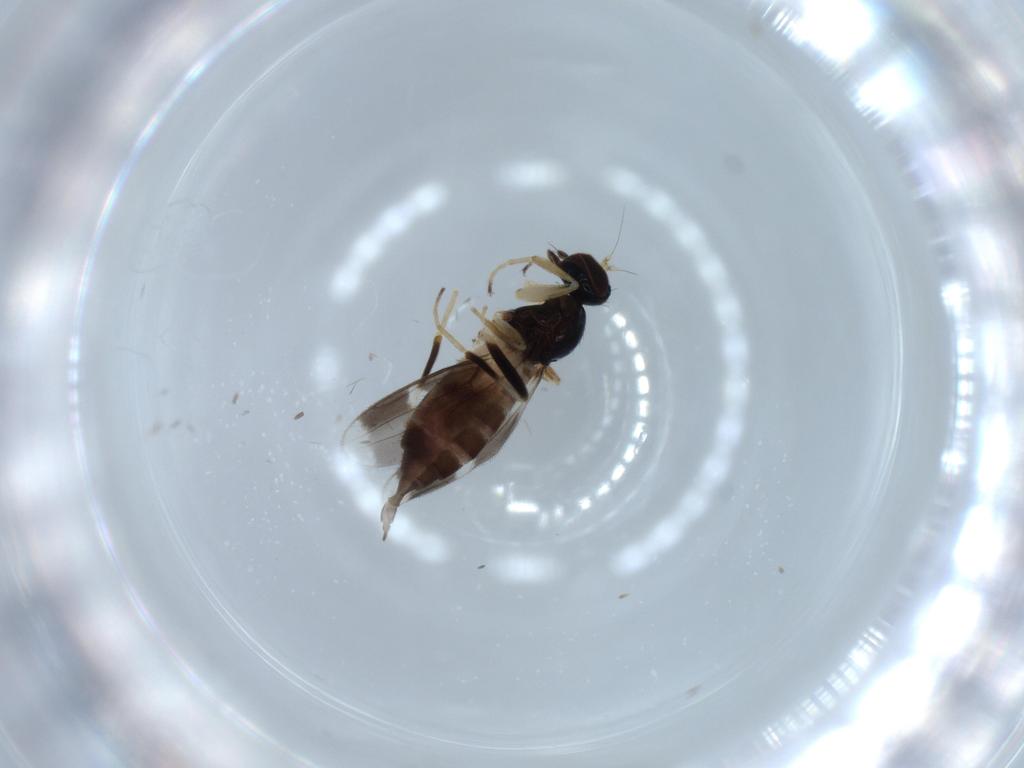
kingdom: Animalia
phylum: Arthropoda
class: Insecta
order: Diptera
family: Hybotidae
